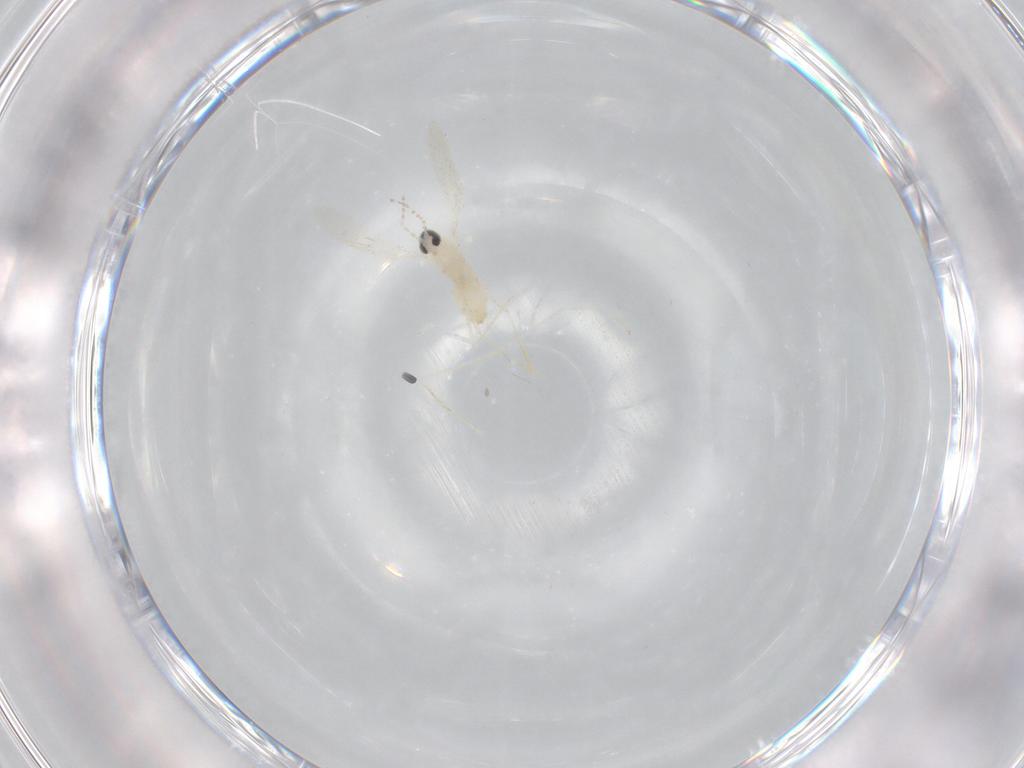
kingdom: Animalia
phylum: Arthropoda
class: Insecta
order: Diptera
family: Cecidomyiidae
